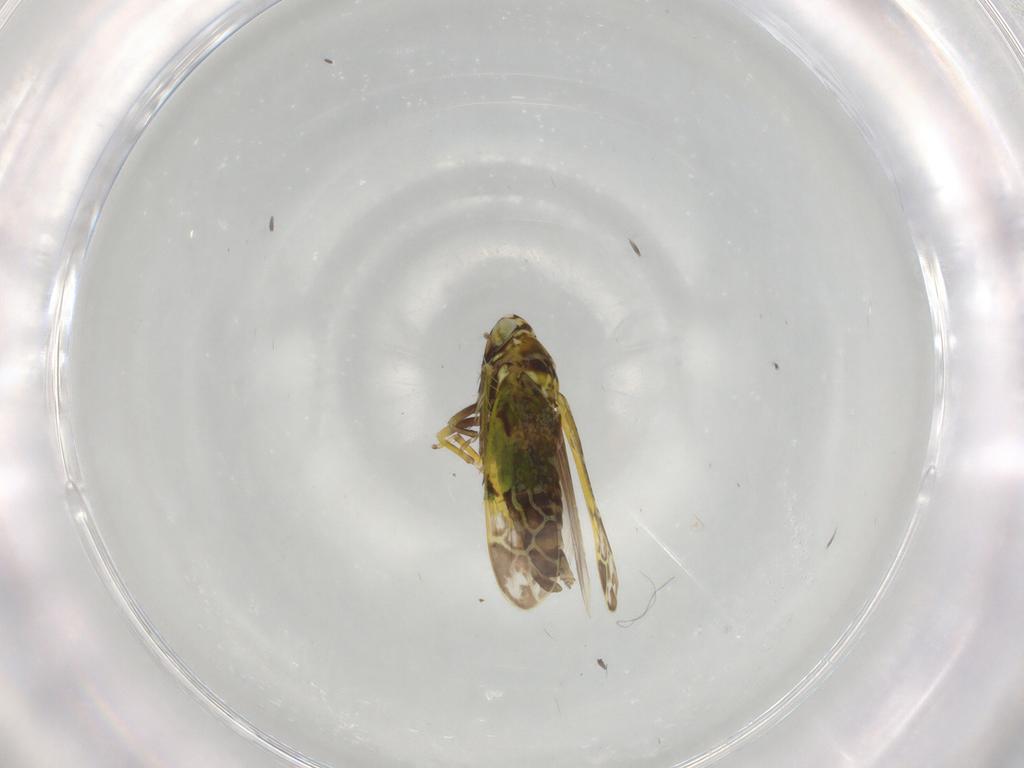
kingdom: Animalia
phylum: Arthropoda
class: Insecta
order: Hemiptera
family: Cicadellidae
